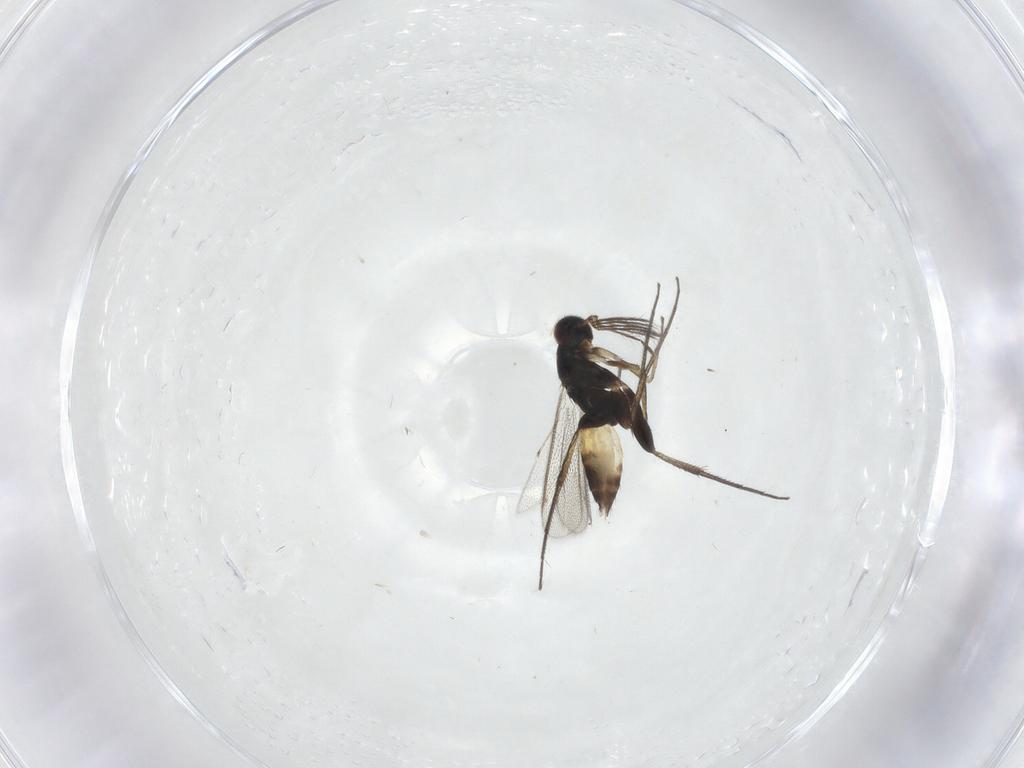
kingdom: Animalia
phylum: Arthropoda
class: Insecta
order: Hymenoptera
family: Eulophidae
